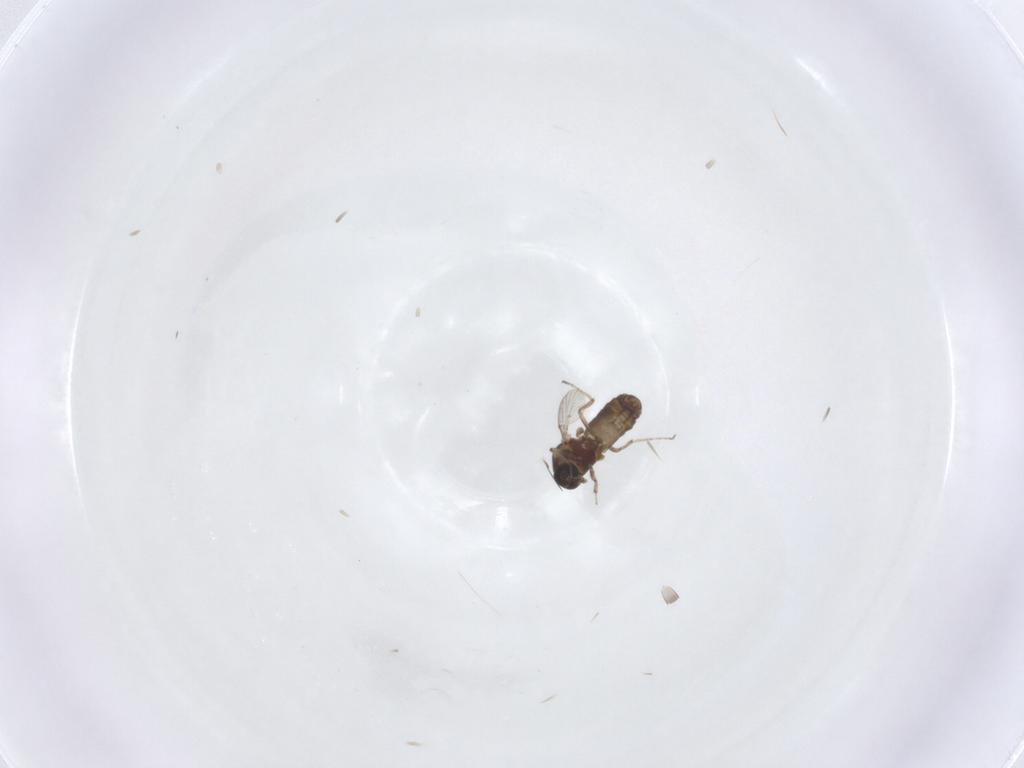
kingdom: Animalia
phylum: Arthropoda
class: Insecta
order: Diptera
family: Ceratopogonidae
